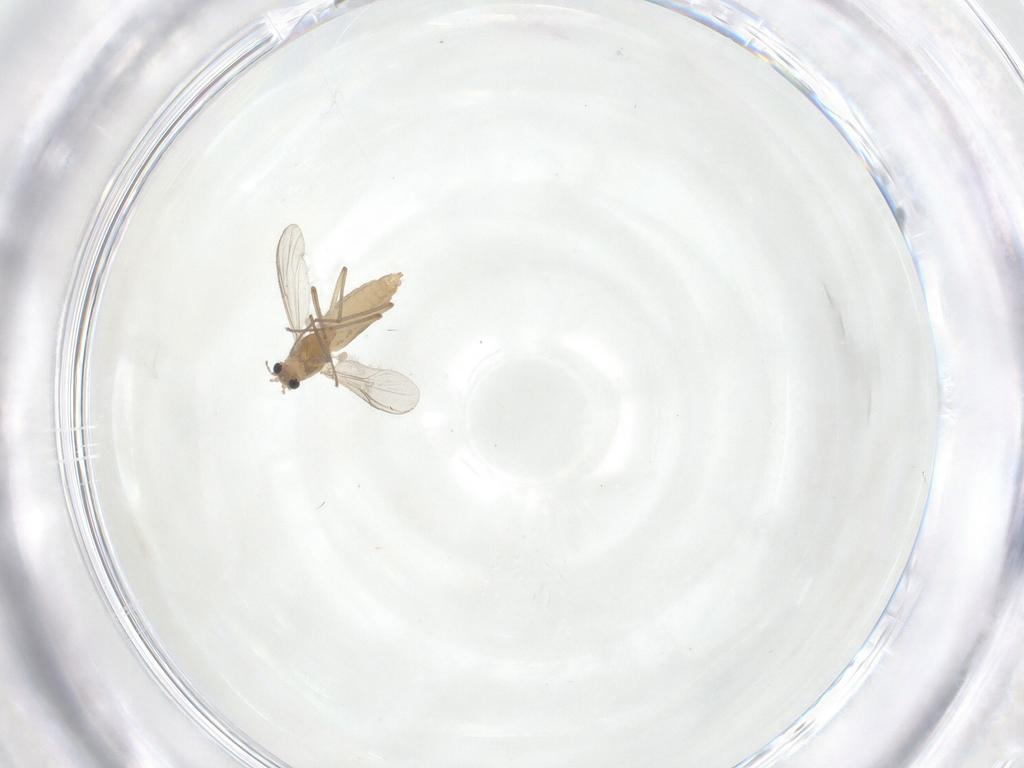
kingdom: Animalia
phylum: Arthropoda
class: Insecta
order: Diptera
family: Chironomidae
